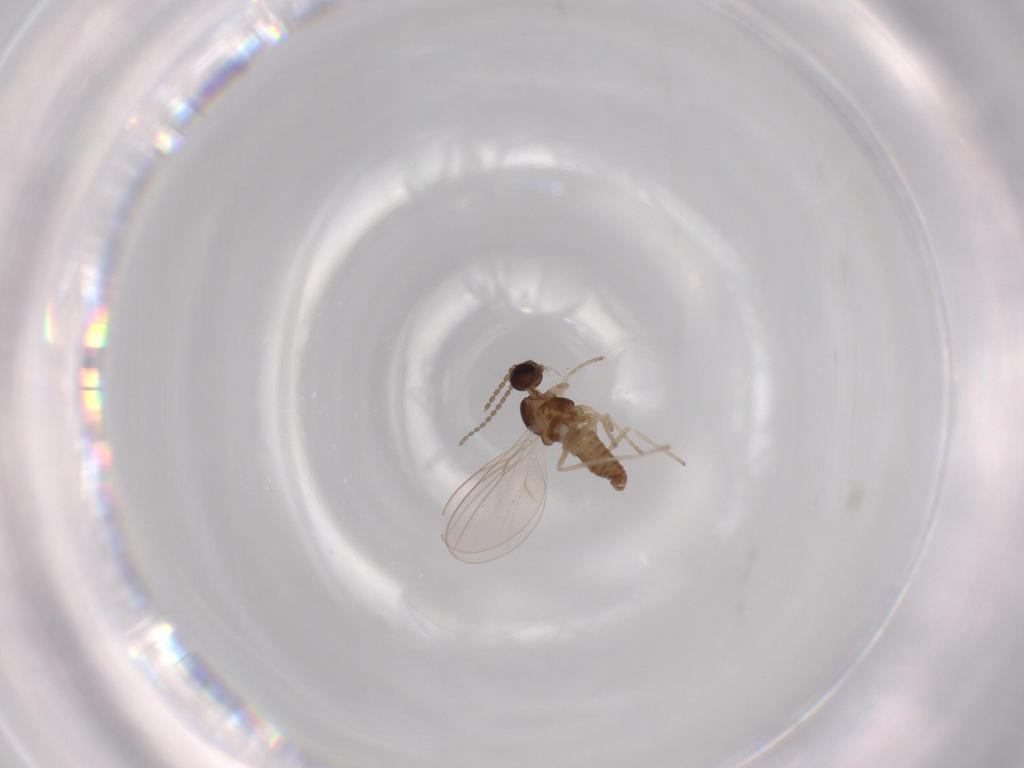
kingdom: Animalia
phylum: Arthropoda
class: Insecta
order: Diptera
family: Cecidomyiidae
